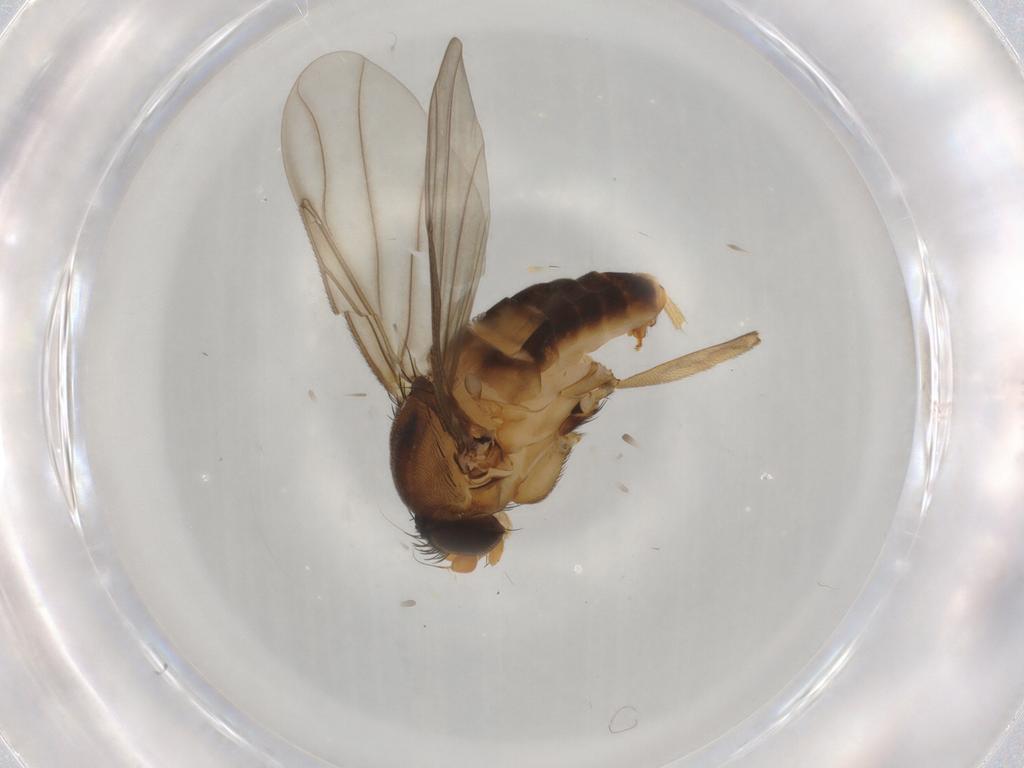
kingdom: Animalia
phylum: Arthropoda
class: Insecta
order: Diptera
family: Phoridae
